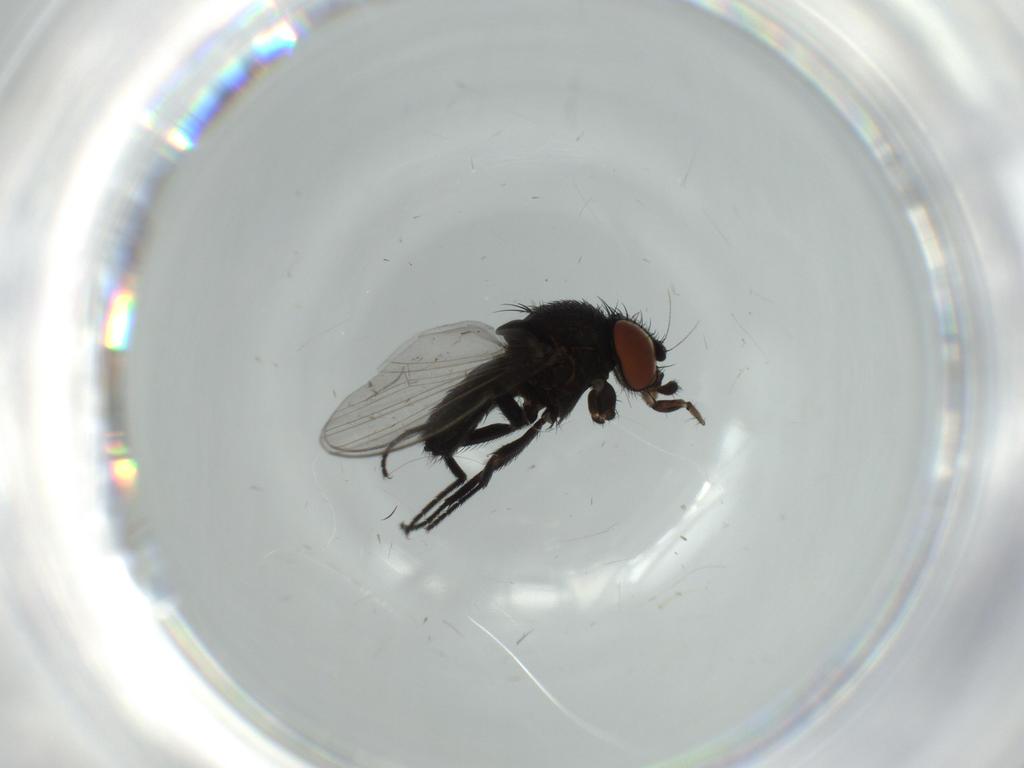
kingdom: Animalia
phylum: Arthropoda
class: Insecta
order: Diptera
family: Milichiidae
